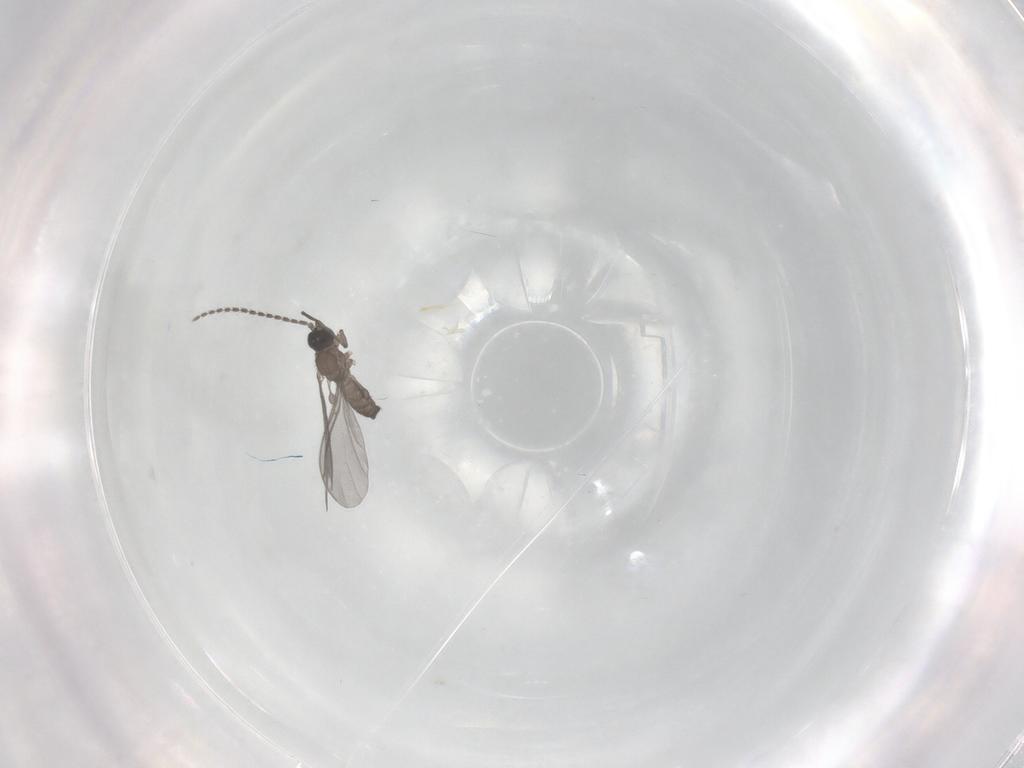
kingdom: Animalia
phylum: Arthropoda
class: Insecta
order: Diptera
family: Sciaridae
